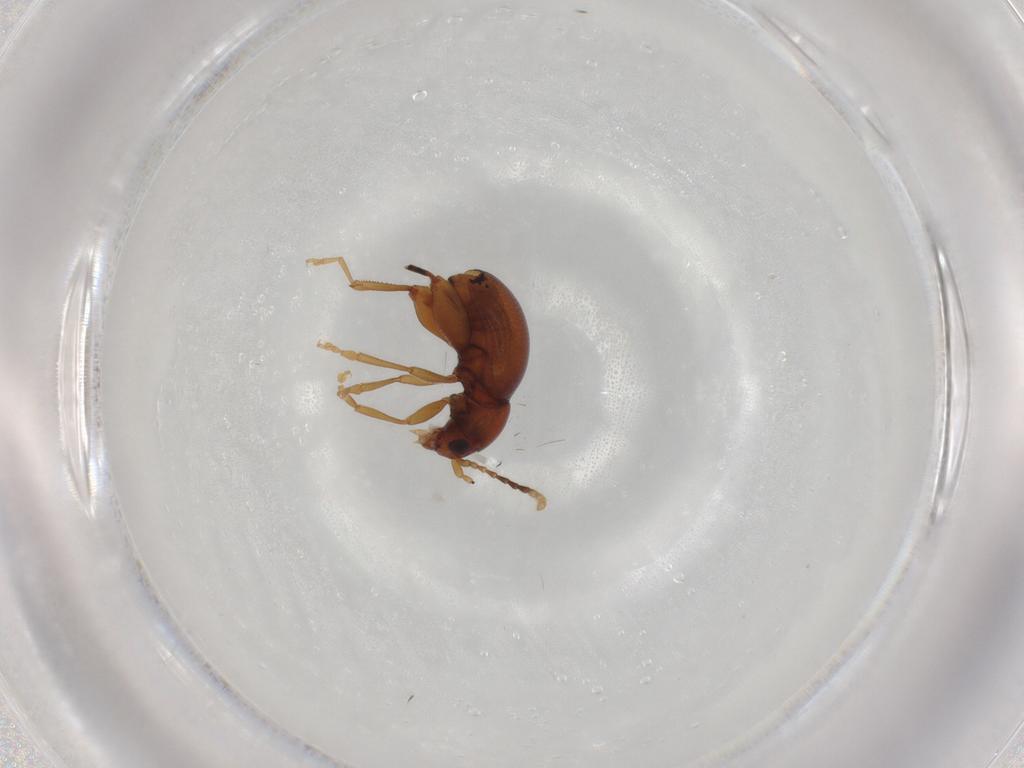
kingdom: Animalia
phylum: Arthropoda
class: Insecta
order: Coleoptera
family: Chrysomelidae
